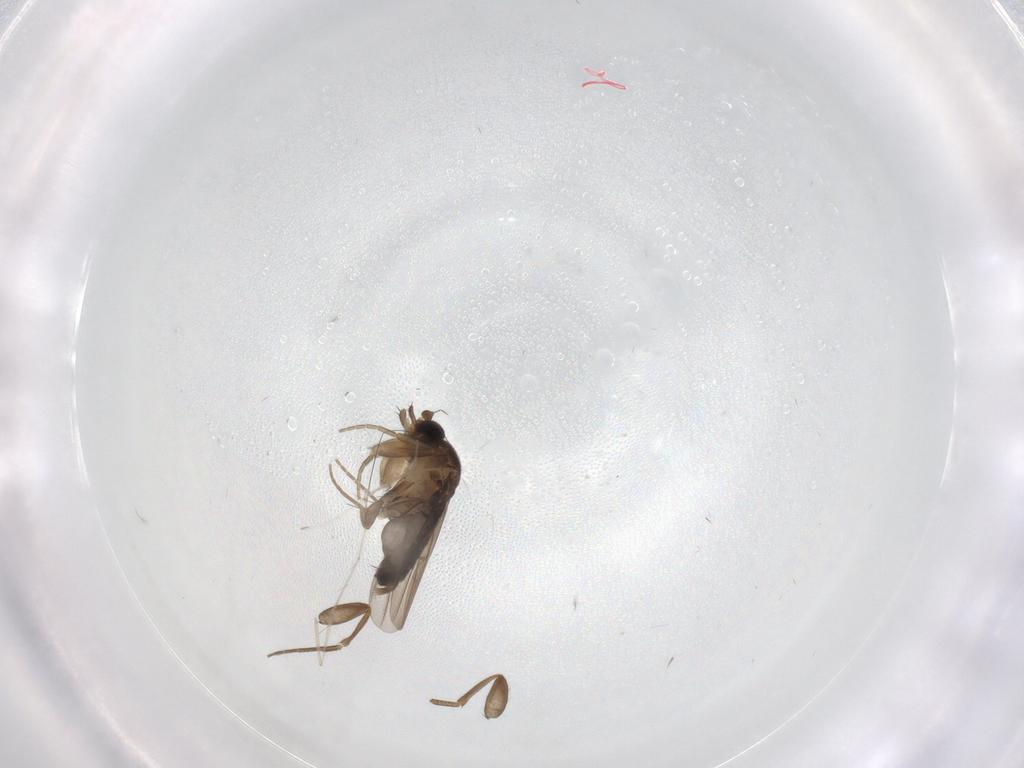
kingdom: Animalia
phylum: Arthropoda
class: Insecta
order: Diptera
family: Phoridae
